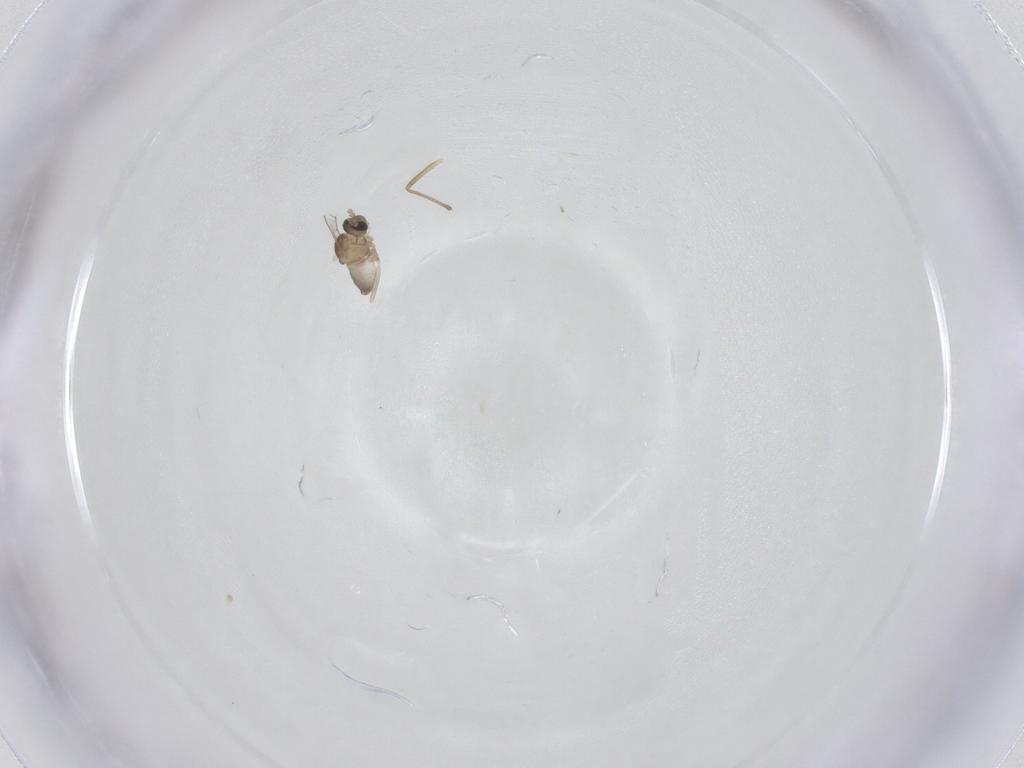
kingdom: Animalia
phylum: Arthropoda
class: Insecta
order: Diptera
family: Cecidomyiidae
